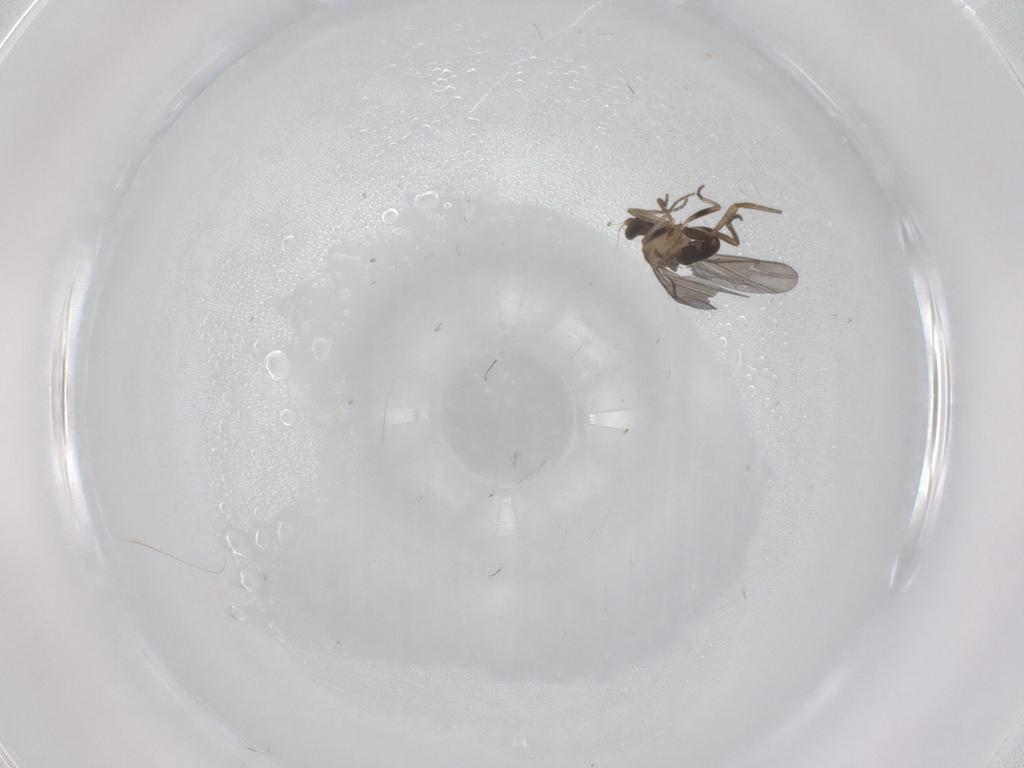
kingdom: Animalia
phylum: Arthropoda
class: Insecta
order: Diptera
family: Phoridae
